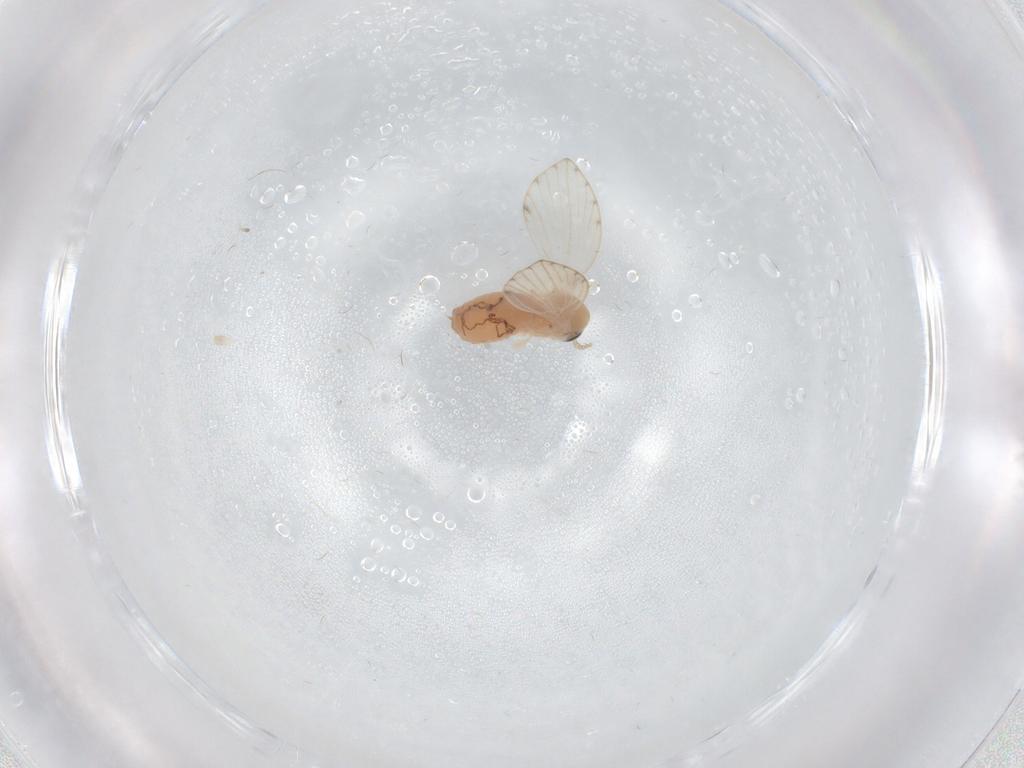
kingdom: Animalia
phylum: Arthropoda
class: Insecta
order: Diptera
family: Psychodidae
